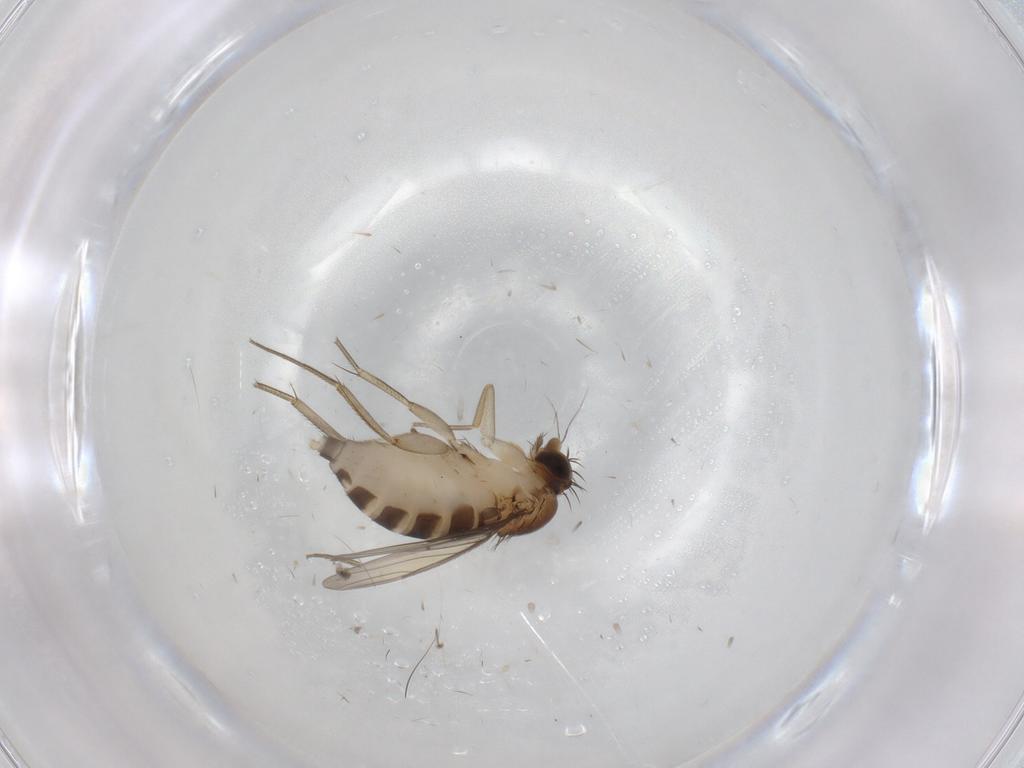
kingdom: Animalia
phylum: Arthropoda
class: Insecta
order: Diptera
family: Phoridae
